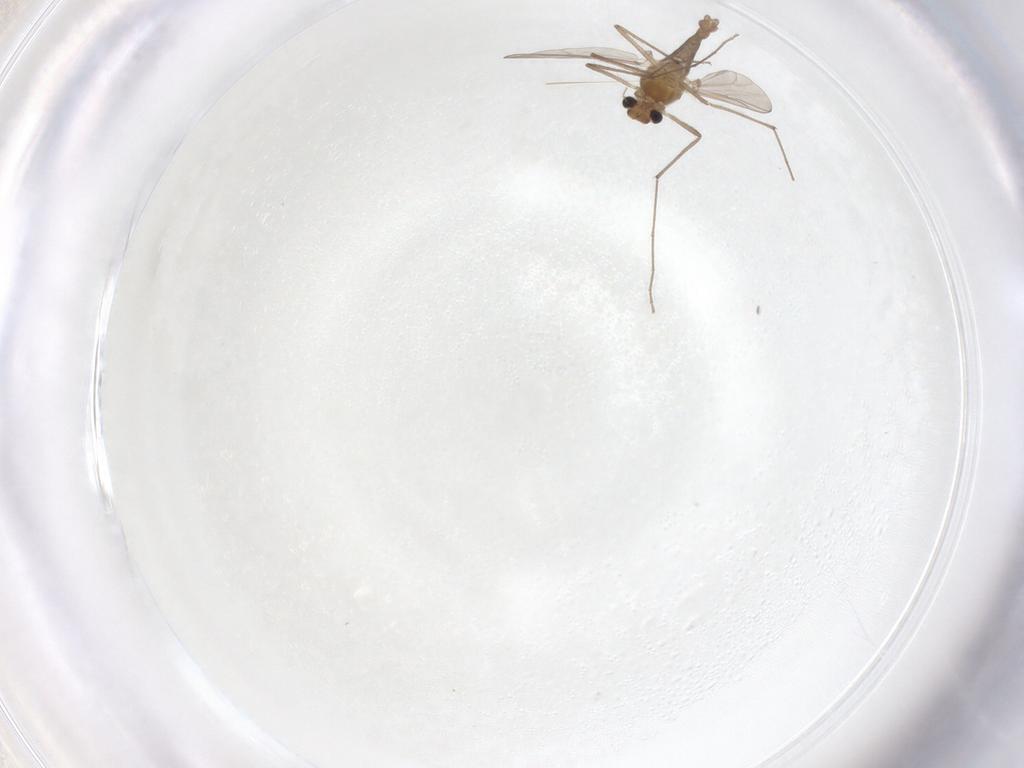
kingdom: Animalia
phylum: Arthropoda
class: Insecta
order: Diptera
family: Chironomidae
